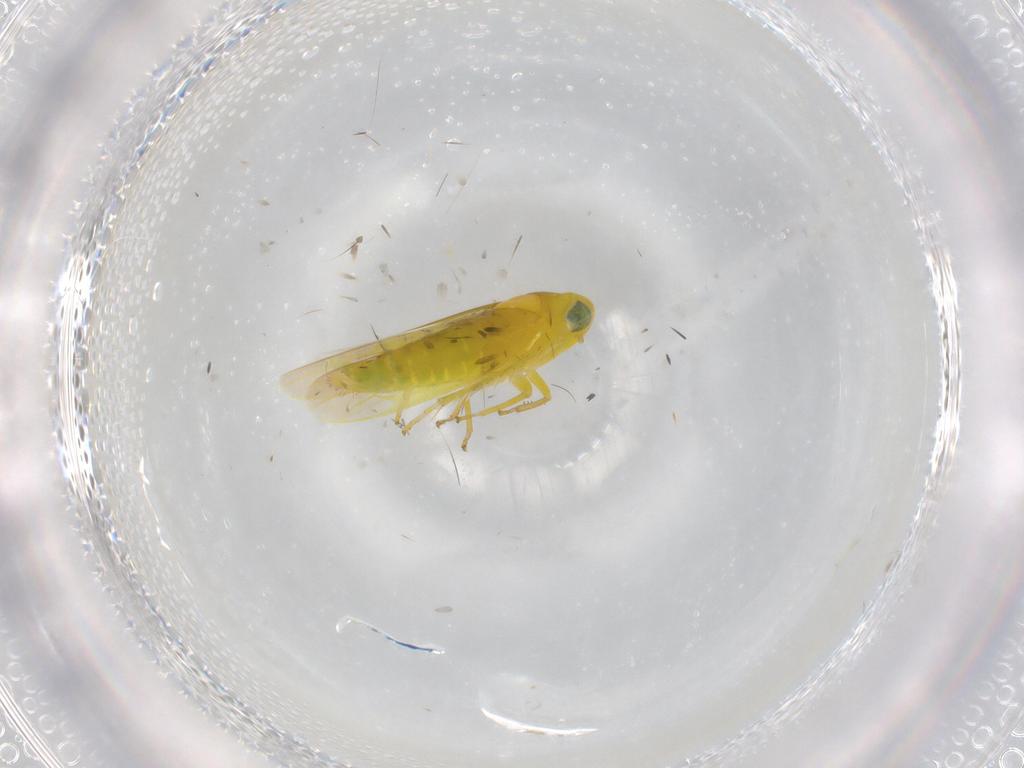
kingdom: Animalia
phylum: Arthropoda
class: Insecta
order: Hemiptera
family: Cicadellidae
